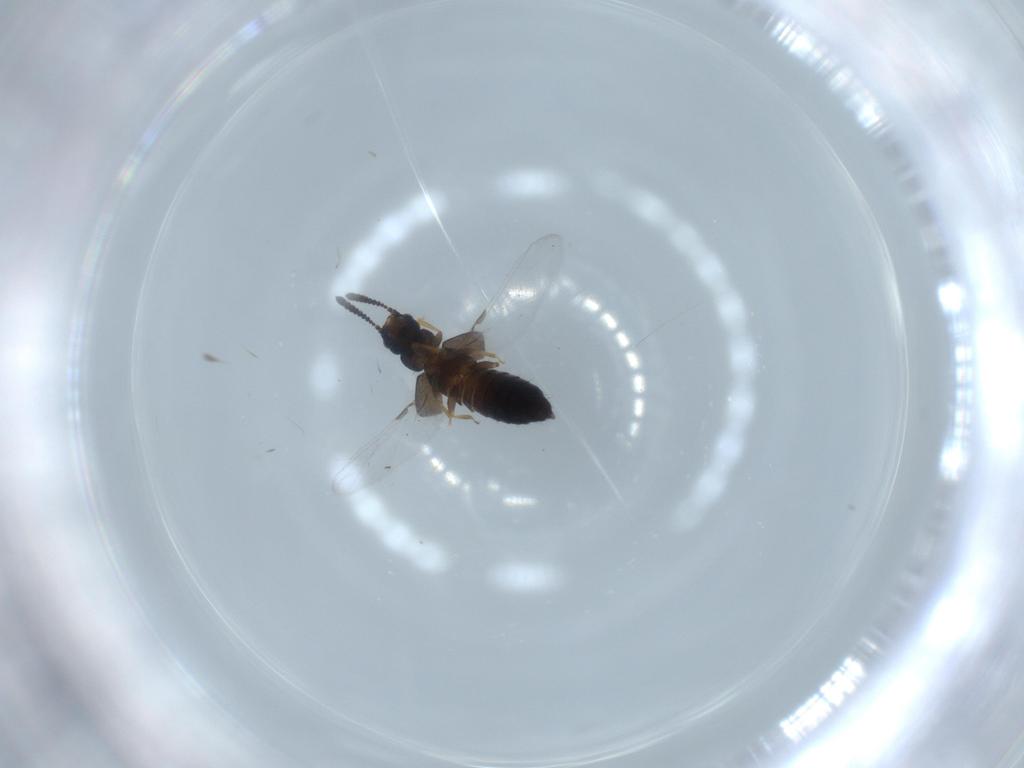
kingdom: Animalia
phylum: Arthropoda
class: Insecta
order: Coleoptera
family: Staphylinidae
